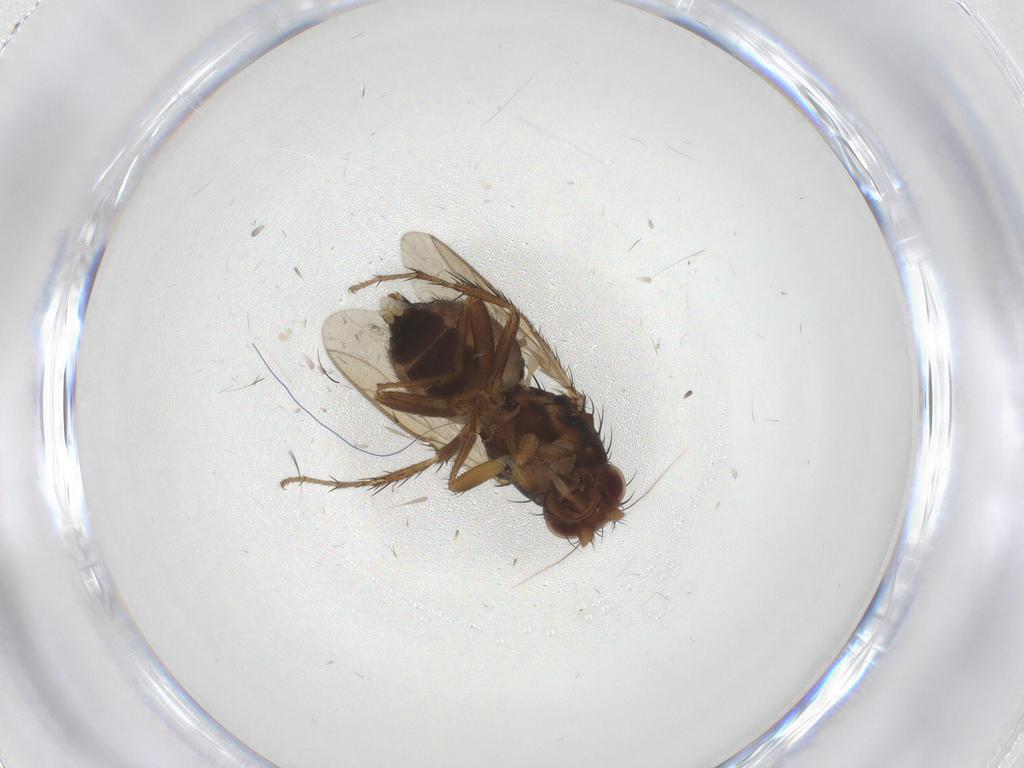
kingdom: Animalia
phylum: Arthropoda
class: Insecta
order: Diptera
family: Sphaeroceridae
